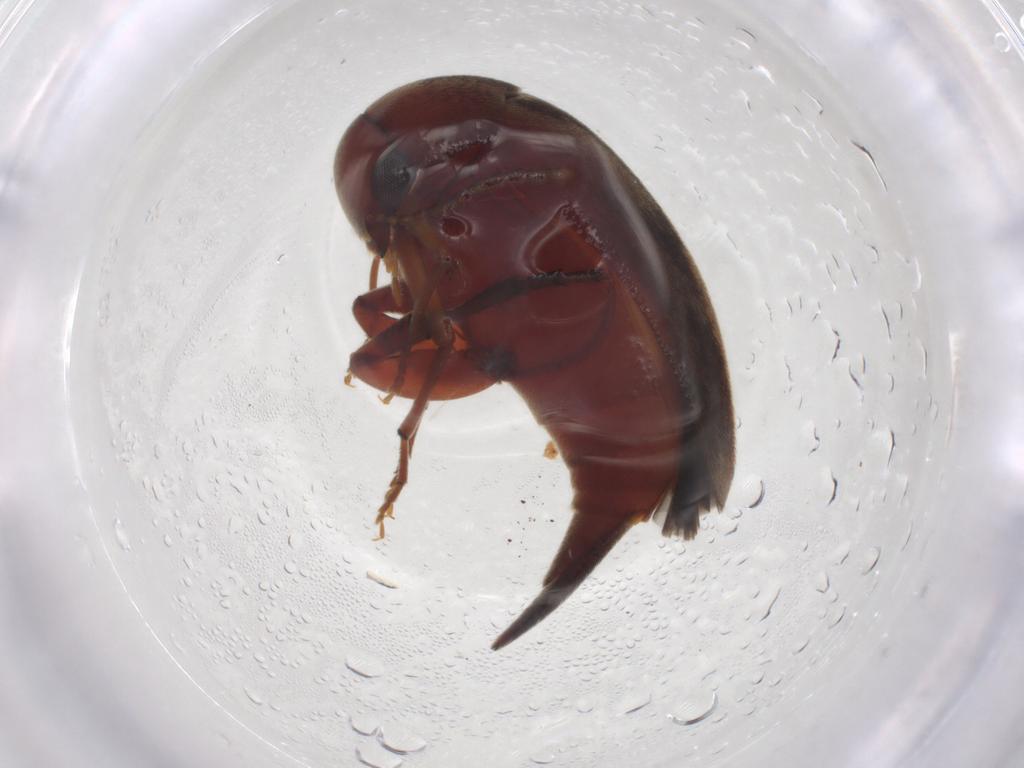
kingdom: Animalia
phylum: Arthropoda
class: Insecta
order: Coleoptera
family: Mordellidae
